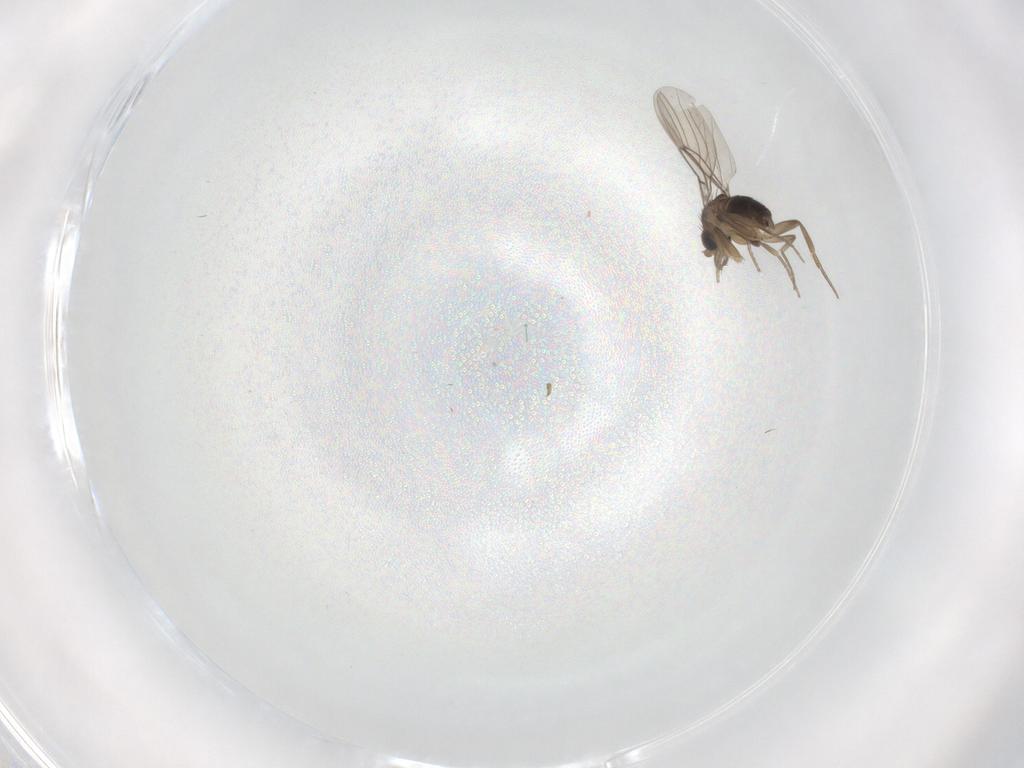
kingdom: Animalia
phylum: Arthropoda
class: Insecta
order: Diptera
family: Phoridae
